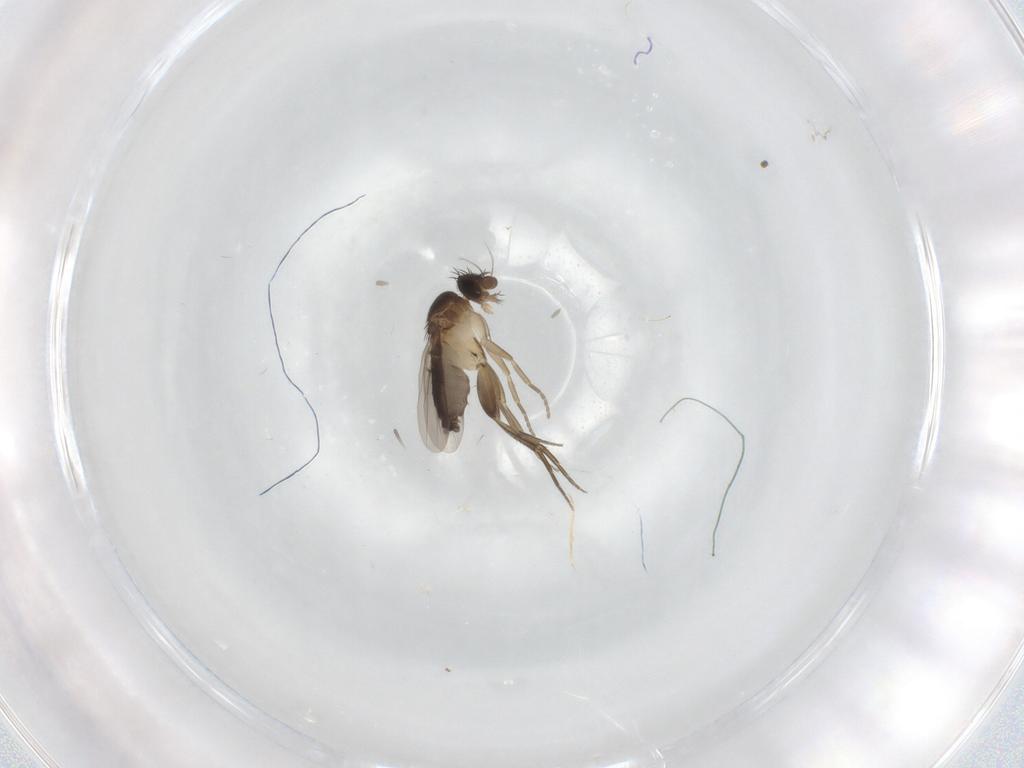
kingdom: Animalia
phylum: Arthropoda
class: Insecta
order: Diptera
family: Phoridae
